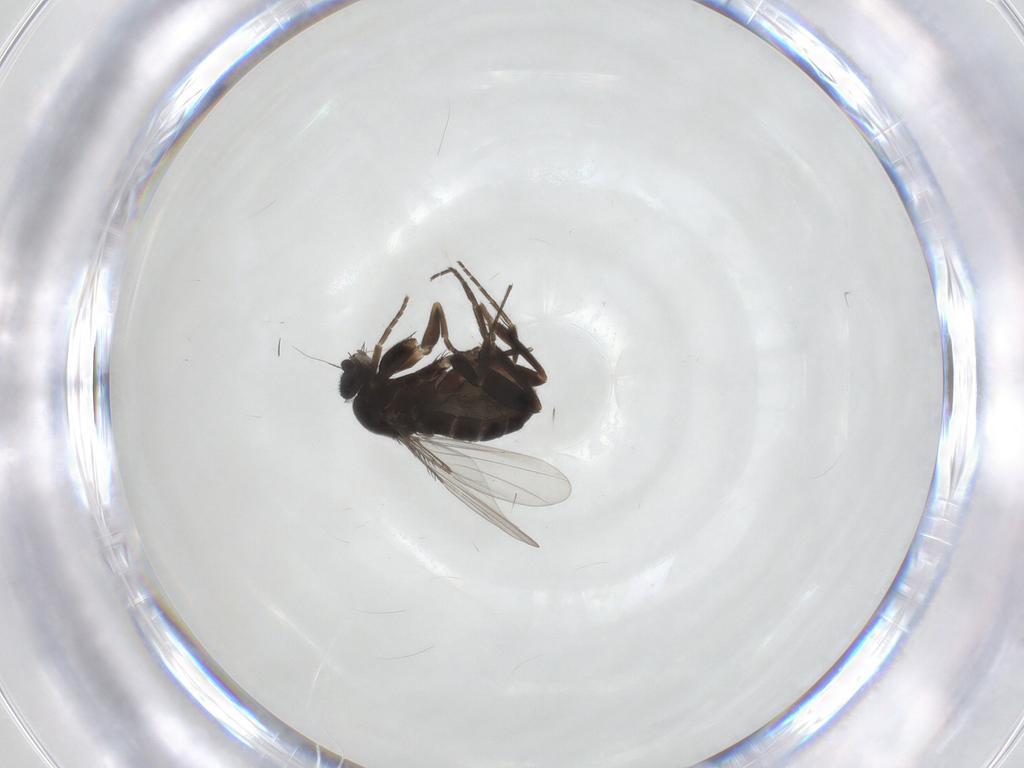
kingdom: Animalia
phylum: Arthropoda
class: Insecta
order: Diptera
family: Phoridae
